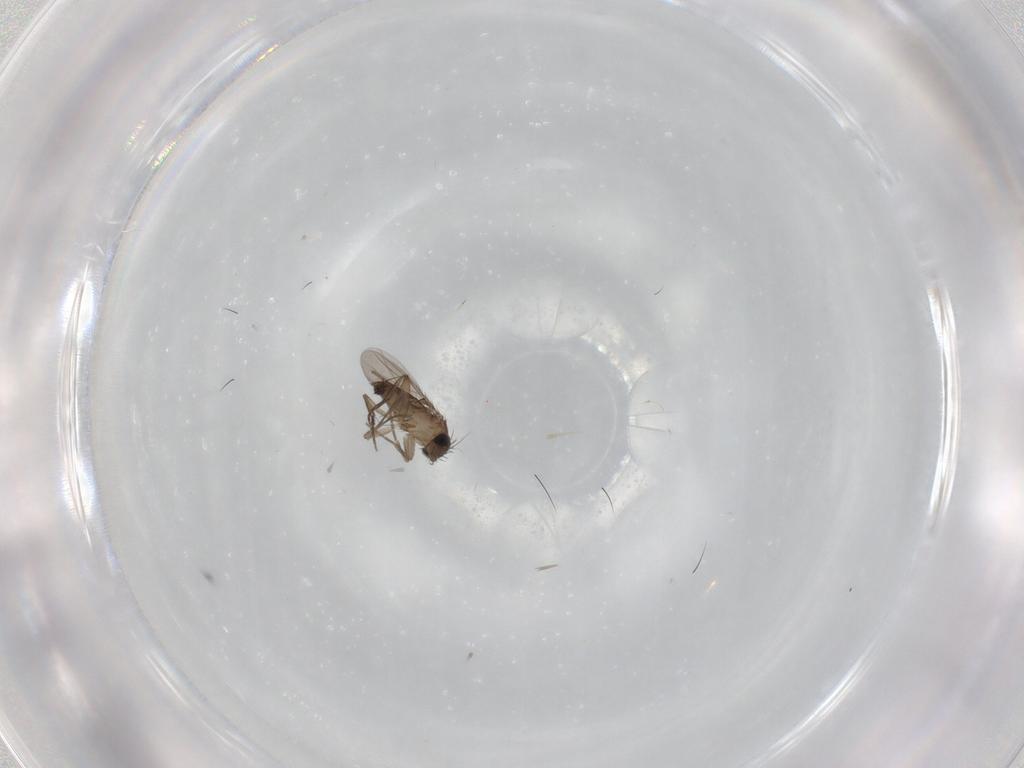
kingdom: Animalia
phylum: Arthropoda
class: Insecta
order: Diptera
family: Phoridae
